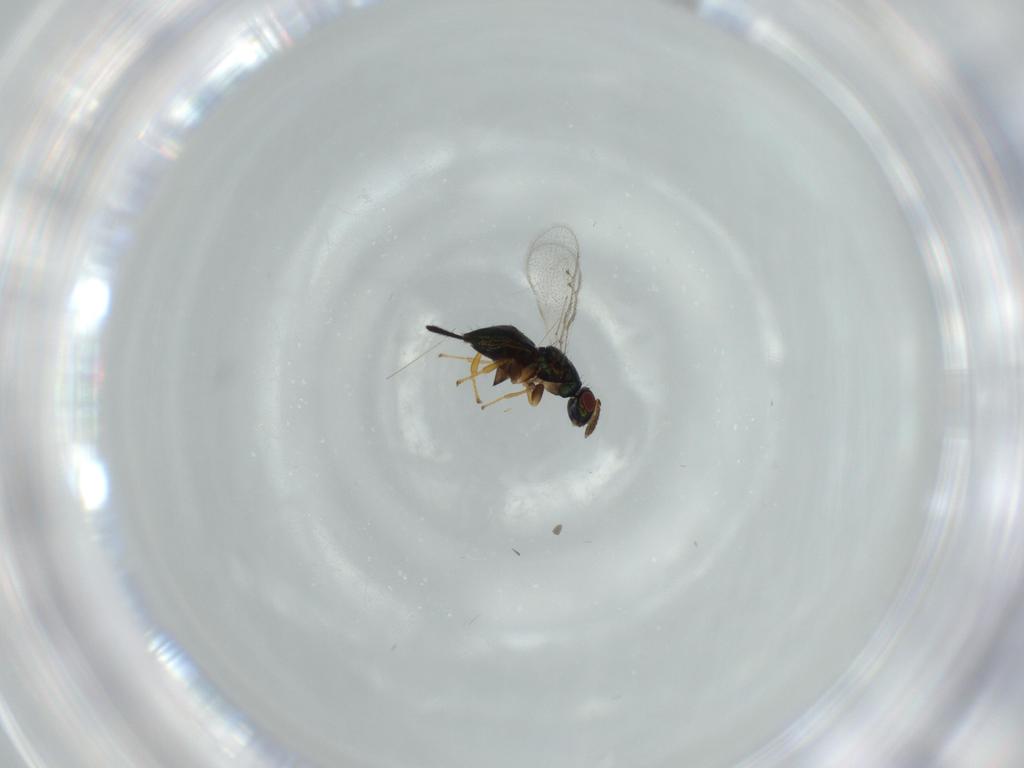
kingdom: Animalia
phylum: Arthropoda
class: Insecta
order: Hymenoptera
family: Torymidae
